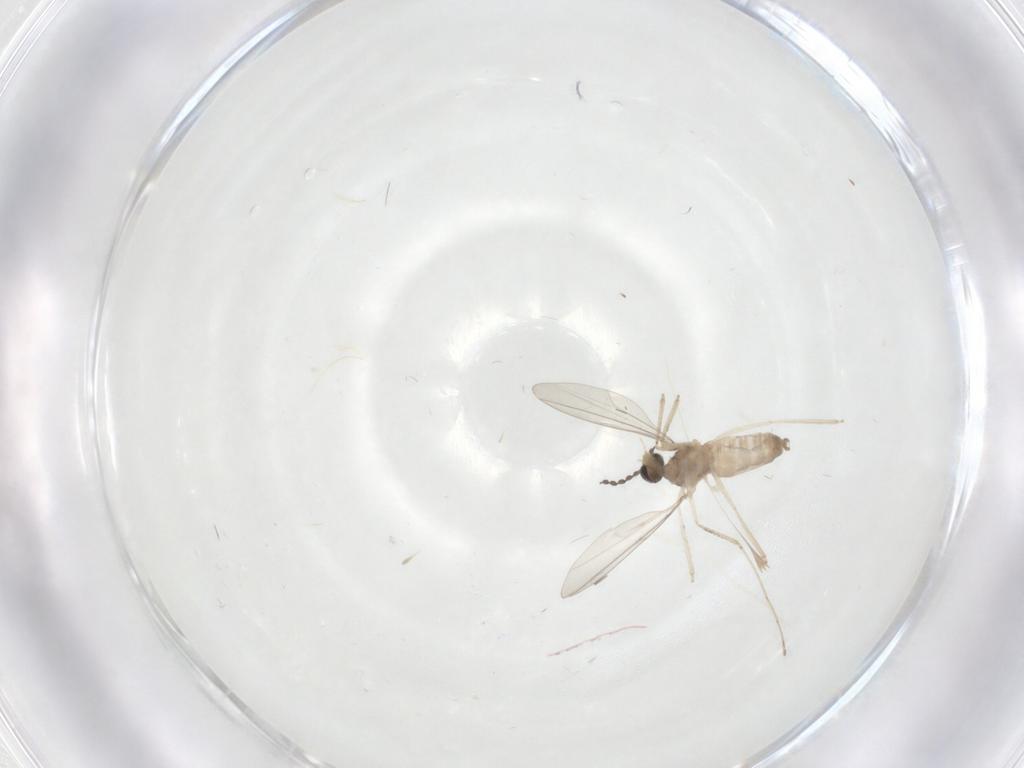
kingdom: Animalia
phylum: Arthropoda
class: Insecta
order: Diptera
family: Cecidomyiidae
